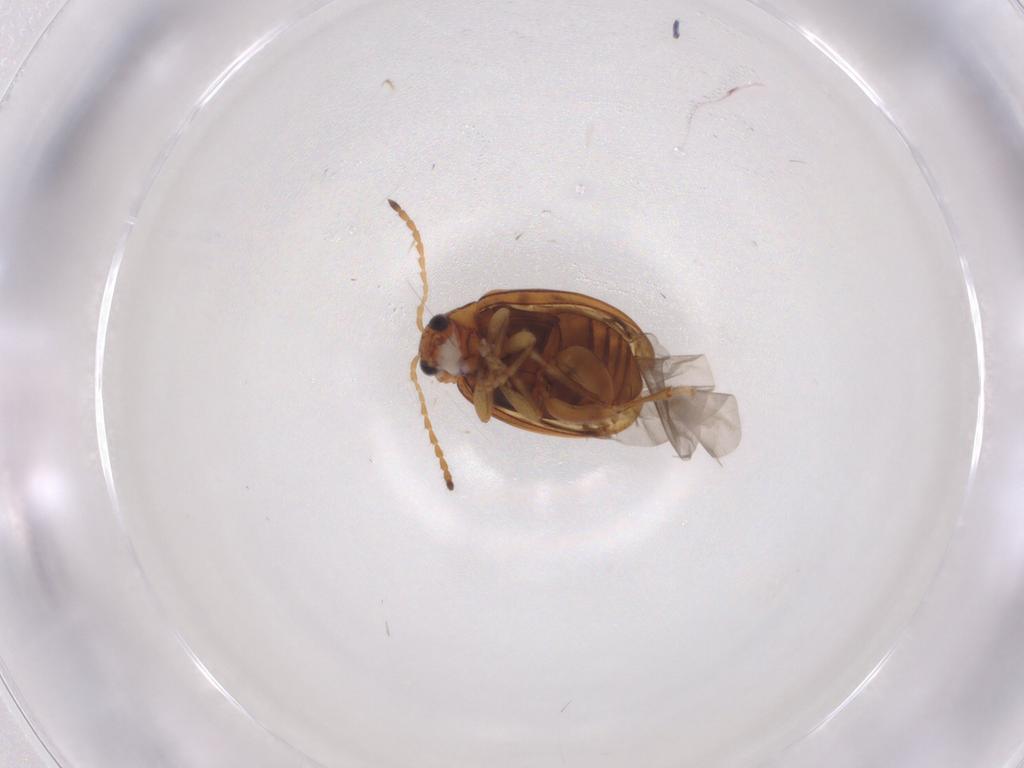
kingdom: Animalia
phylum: Arthropoda
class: Insecta
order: Coleoptera
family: Chrysomelidae
